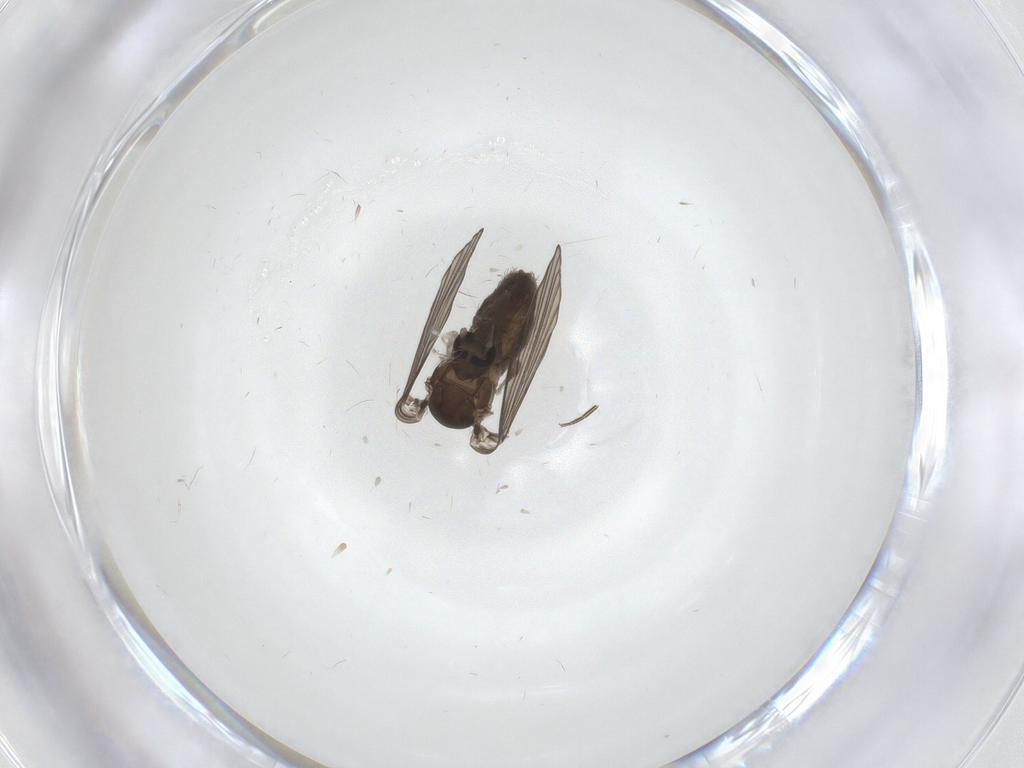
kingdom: Animalia
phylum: Arthropoda
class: Insecta
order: Diptera
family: Psychodidae
